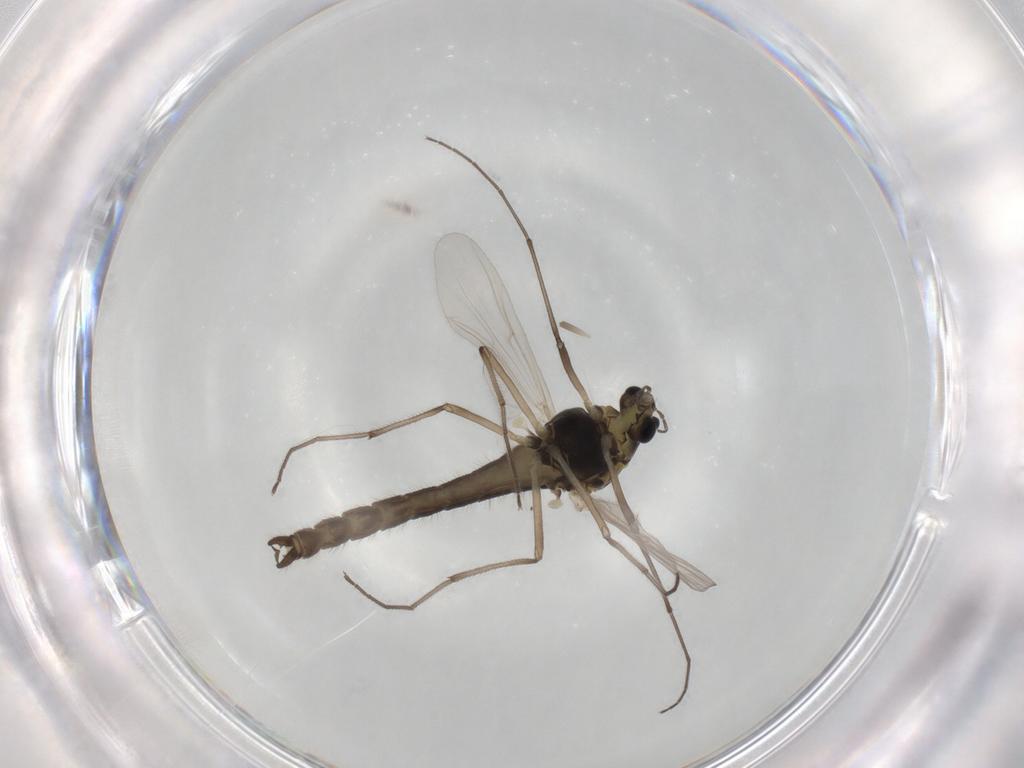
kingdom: Animalia
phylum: Arthropoda
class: Insecta
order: Diptera
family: Chironomidae
